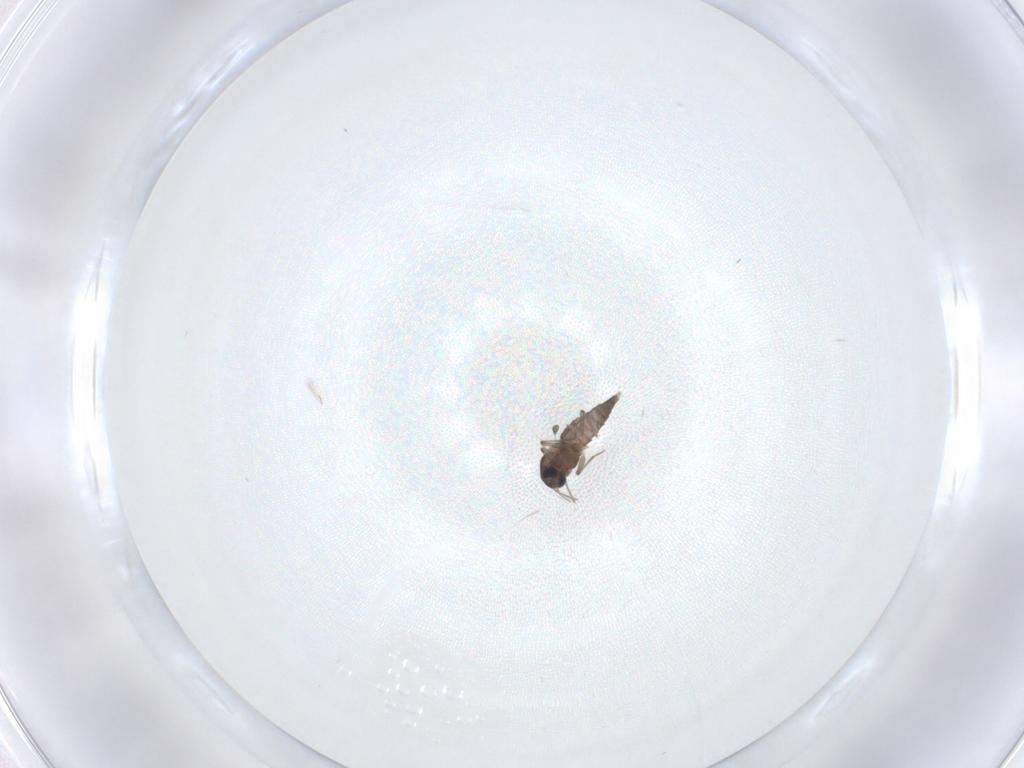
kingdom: Animalia
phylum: Arthropoda
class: Insecta
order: Diptera
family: Chironomidae
